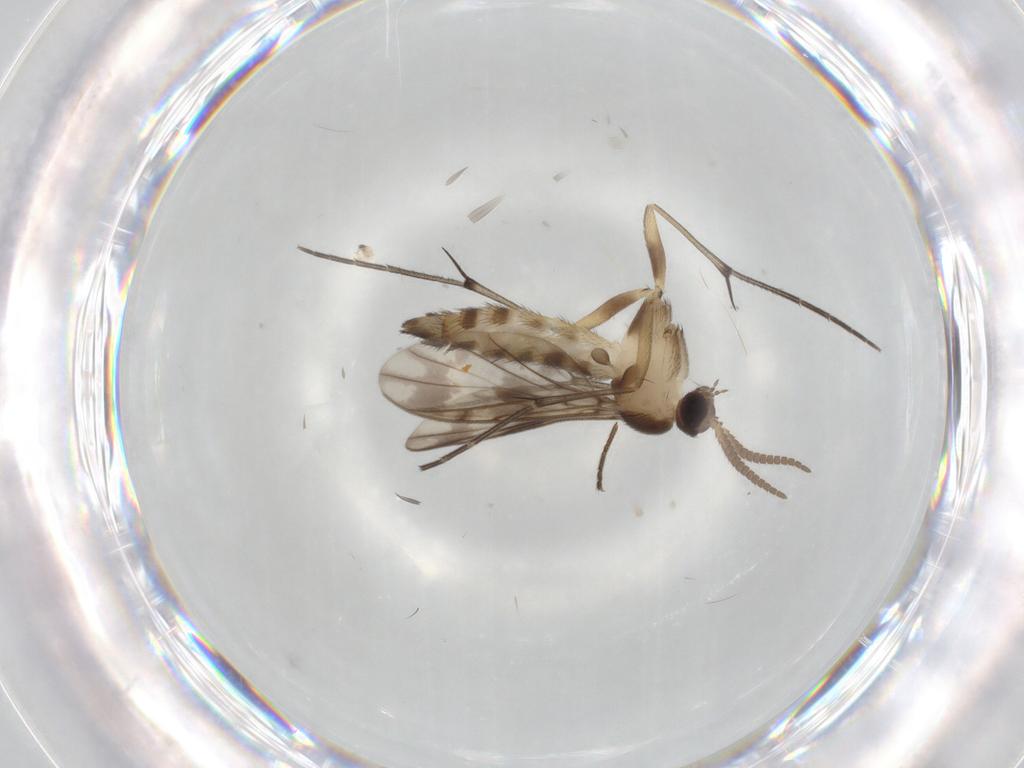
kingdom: Animalia
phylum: Arthropoda
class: Insecta
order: Diptera
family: Keroplatidae
